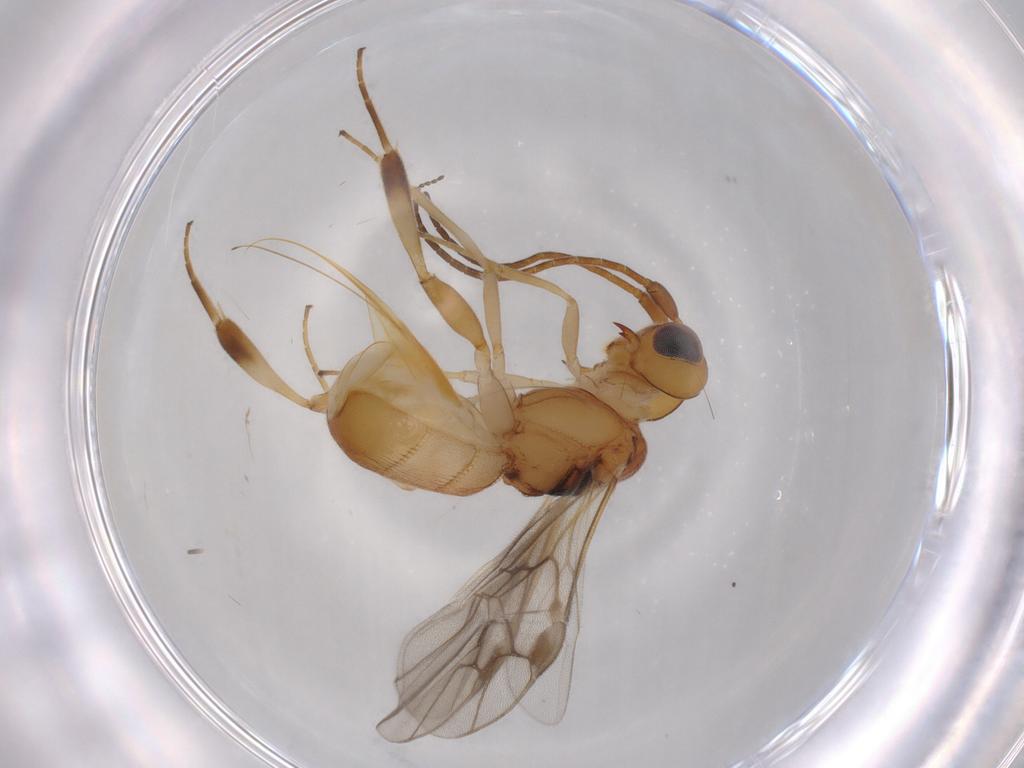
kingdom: Animalia
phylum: Arthropoda
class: Insecta
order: Hymenoptera
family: Braconidae
